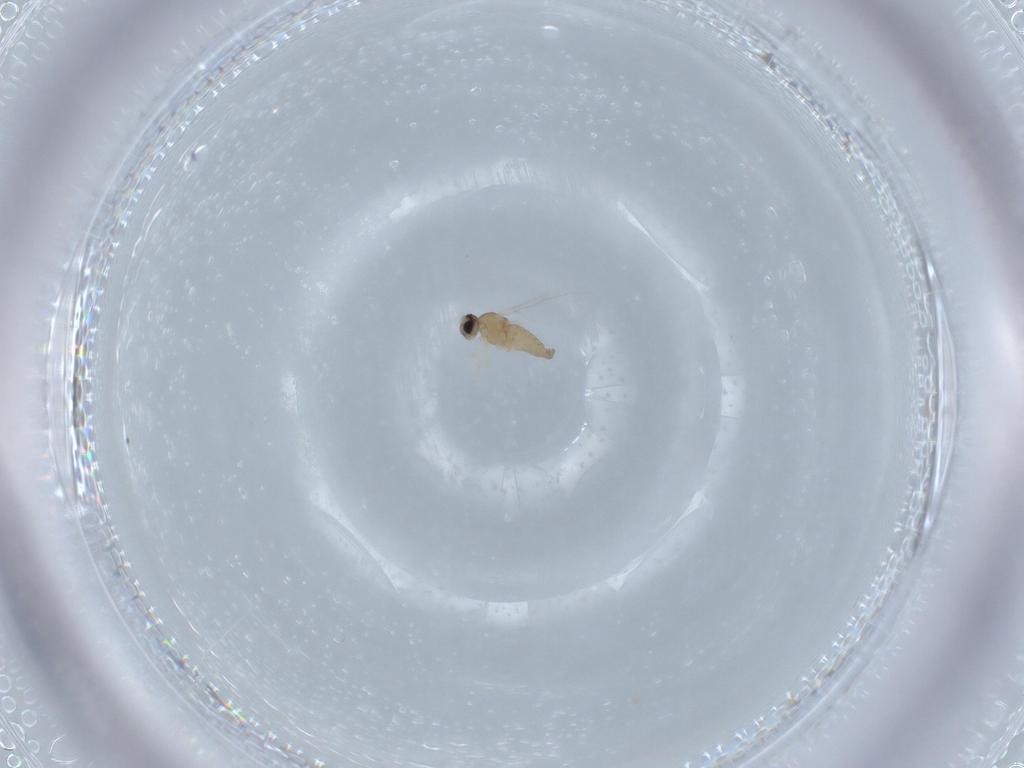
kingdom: Animalia
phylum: Arthropoda
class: Insecta
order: Diptera
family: Cecidomyiidae
